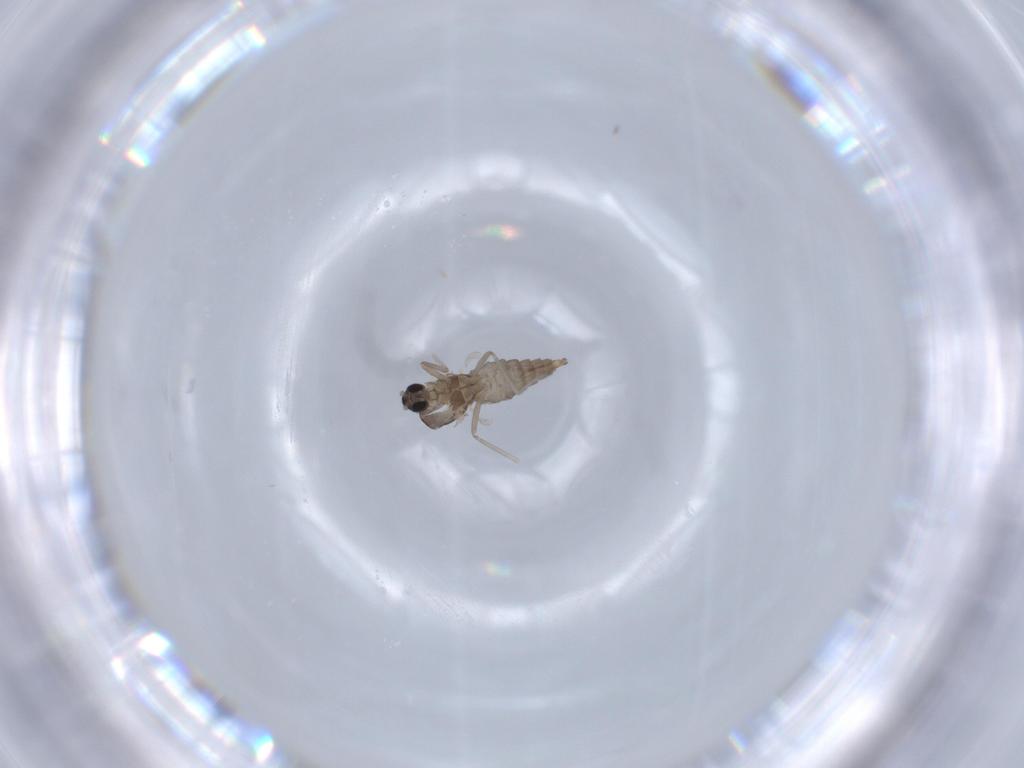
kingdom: Animalia
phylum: Arthropoda
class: Insecta
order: Diptera
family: Cecidomyiidae
